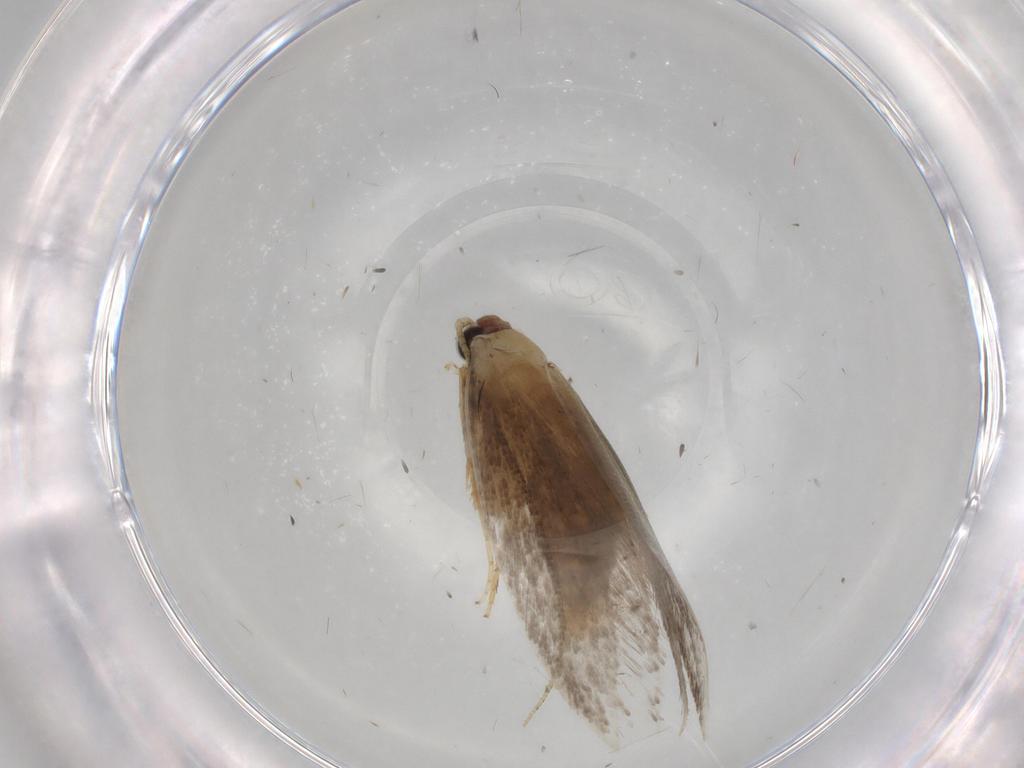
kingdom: Animalia
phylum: Arthropoda
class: Insecta
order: Lepidoptera
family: Tineidae
